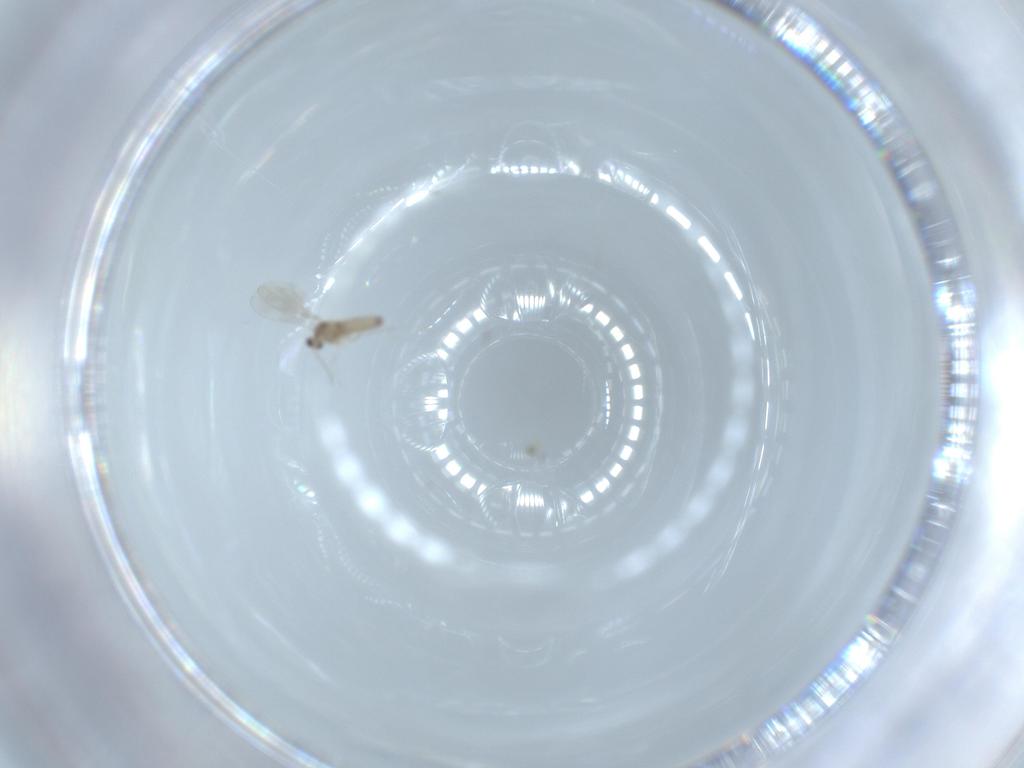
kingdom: Animalia
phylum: Arthropoda
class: Insecta
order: Diptera
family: Cecidomyiidae
